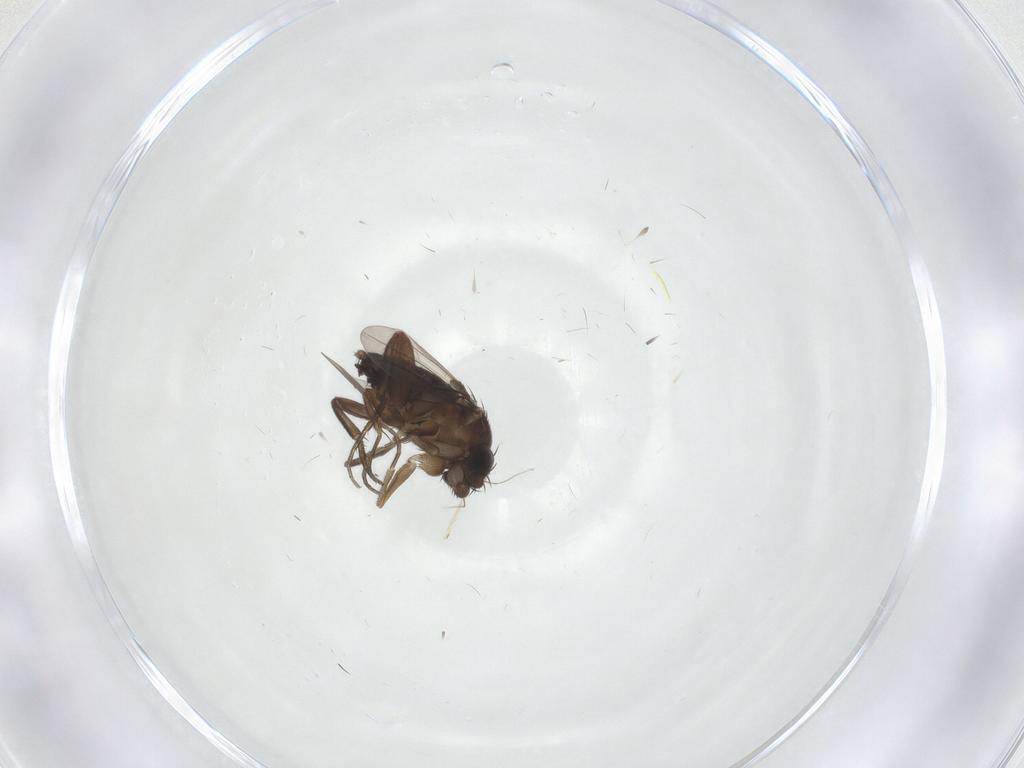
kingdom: Animalia
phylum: Arthropoda
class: Insecta
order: Diptera
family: Phoridae
